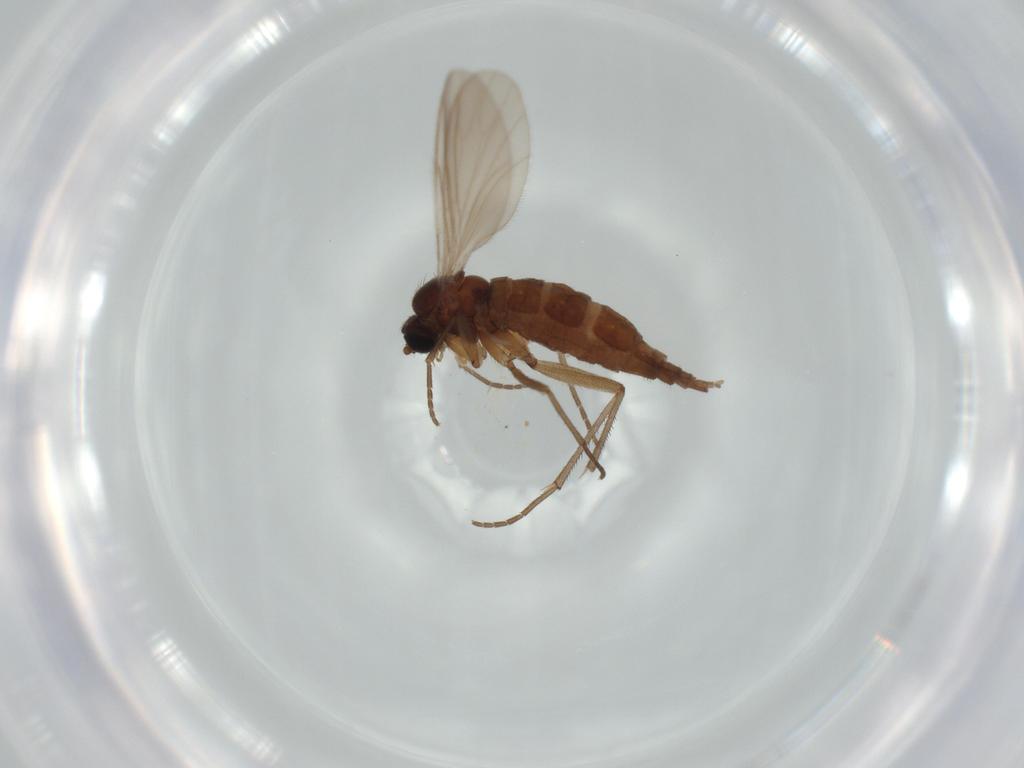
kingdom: Animalia
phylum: Arthropoda
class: Insecta
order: Diptera
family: Sciaridae
